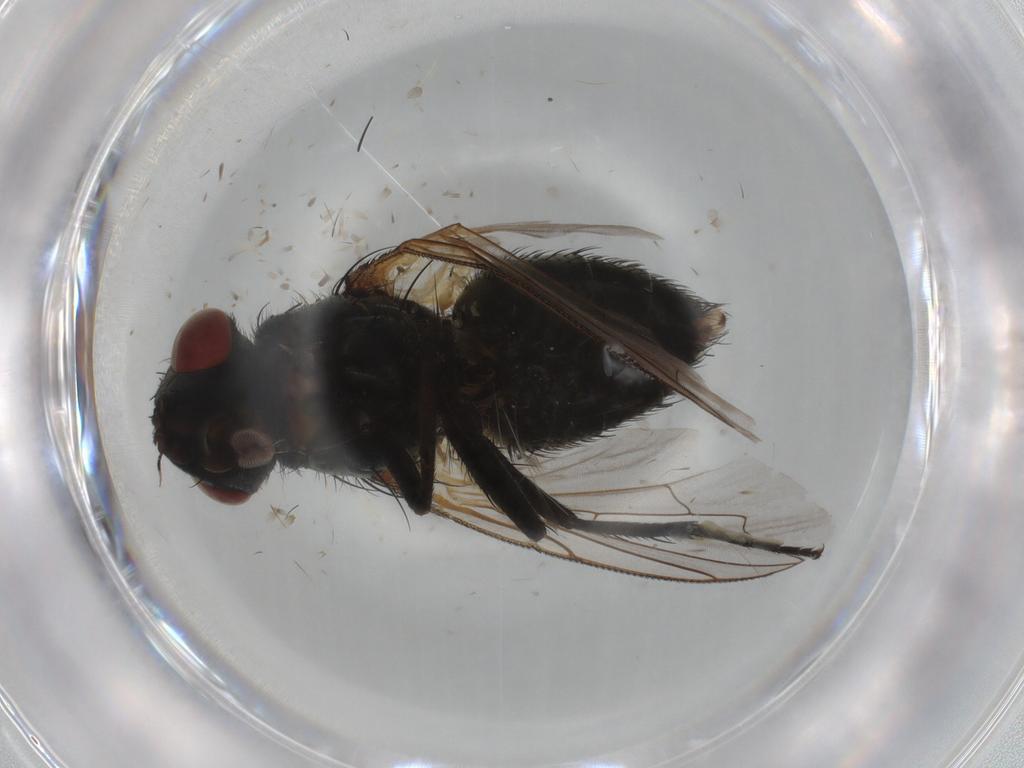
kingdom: Animalia
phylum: Arthropoda
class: Insecta
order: Diptera
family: Sarcophagidae
